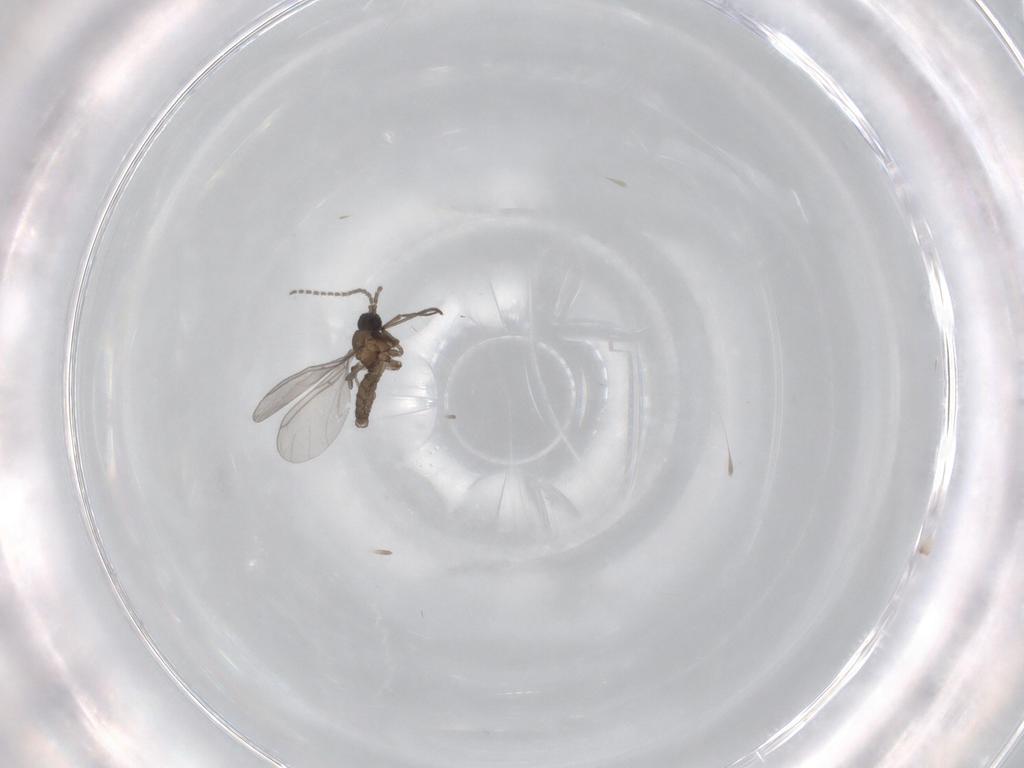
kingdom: Animalia
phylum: Arthropoda
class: Insecta
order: Diptera
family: Sciaridae
